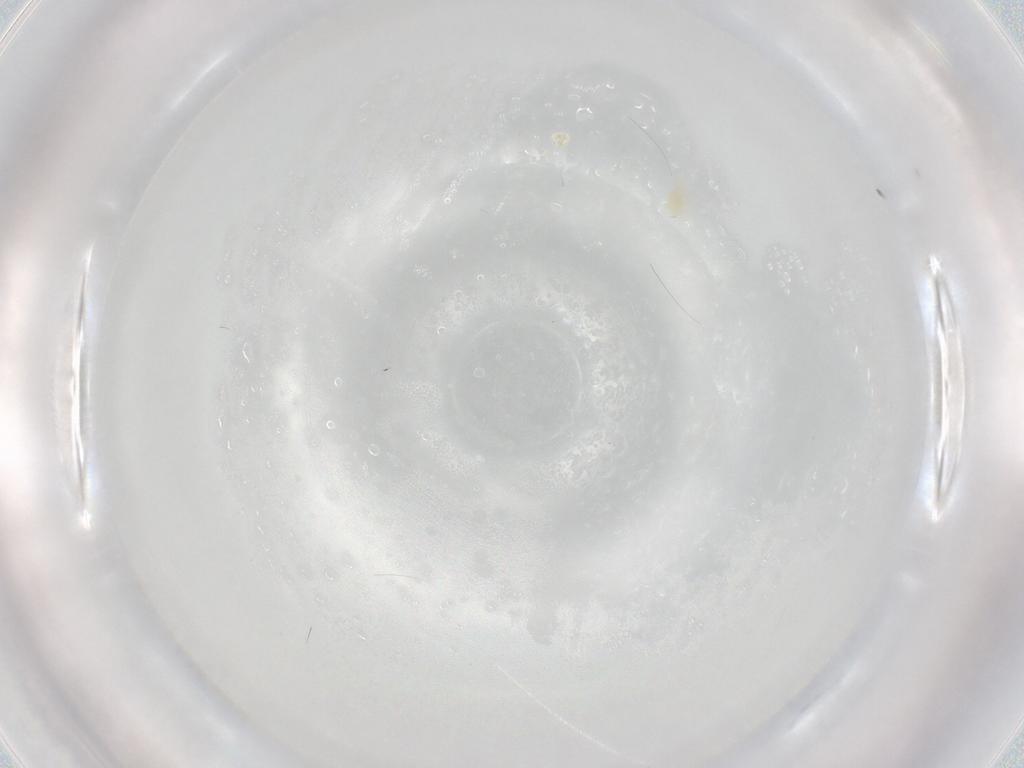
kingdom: Animalia
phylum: Arthropoda
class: Arachnida
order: Trombidiformes
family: Eupodidae
